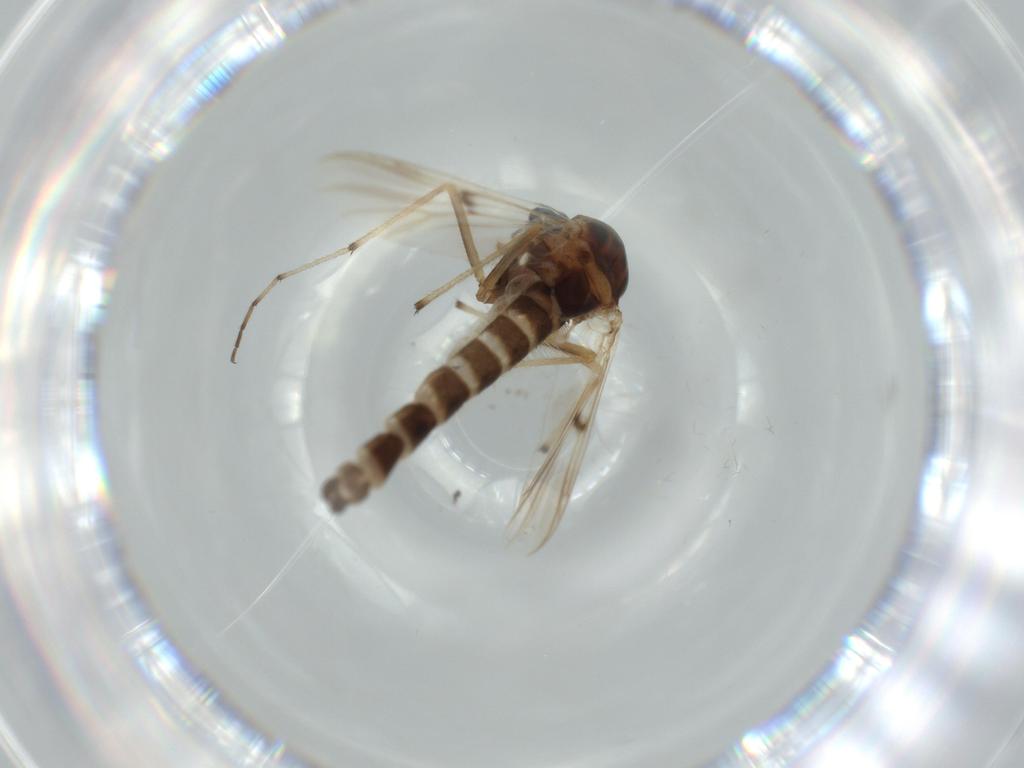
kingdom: Animalia
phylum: Arthropoda
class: Insecta
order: Diptera
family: Chironomidae
